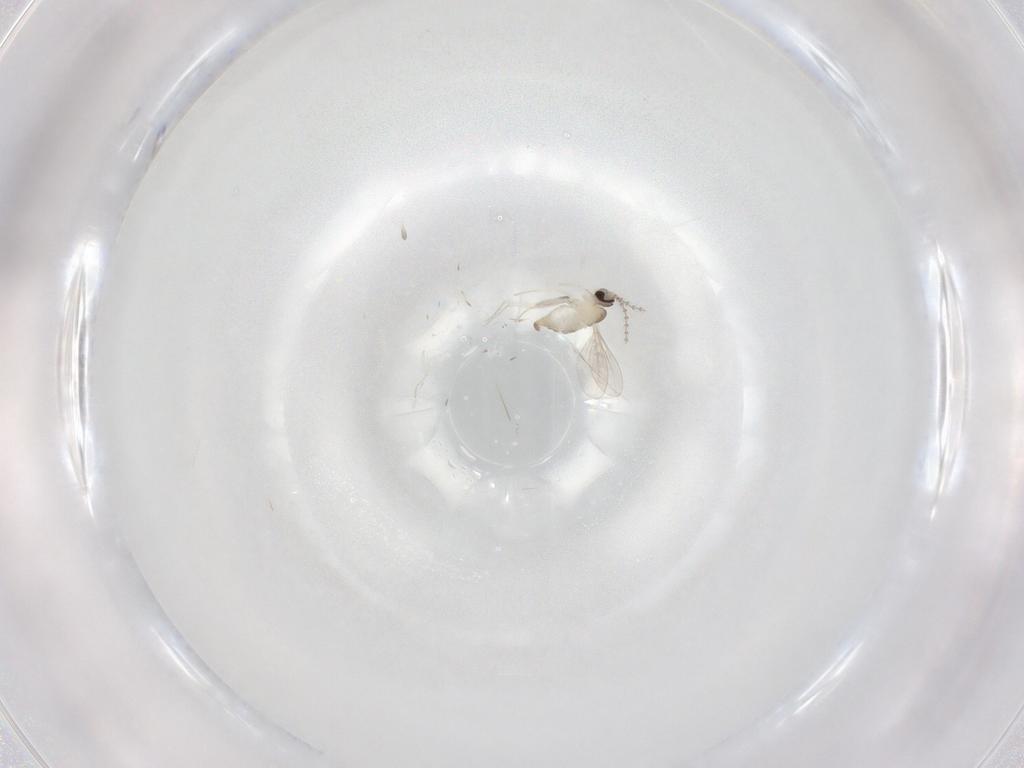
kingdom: Animalia
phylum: Arthropoda
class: Insecta
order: Diptera
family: Cecidomyiidae
